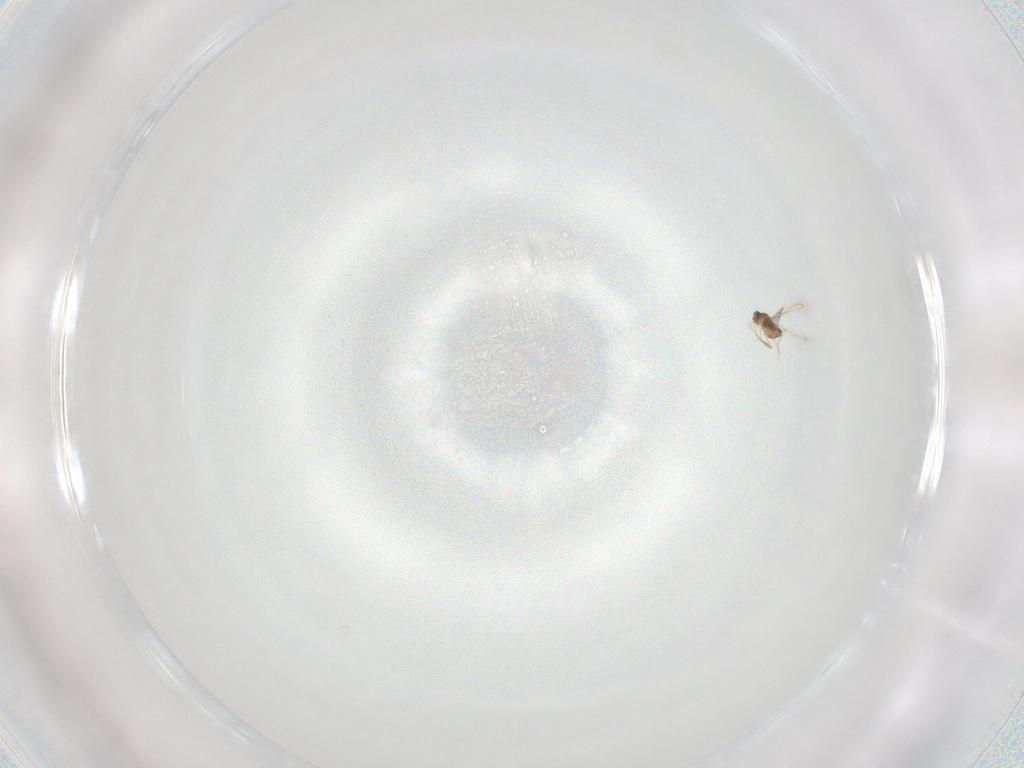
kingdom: Animalia
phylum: Arthropoda
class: Insecta
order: Hymenoptera
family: Mymaridae
